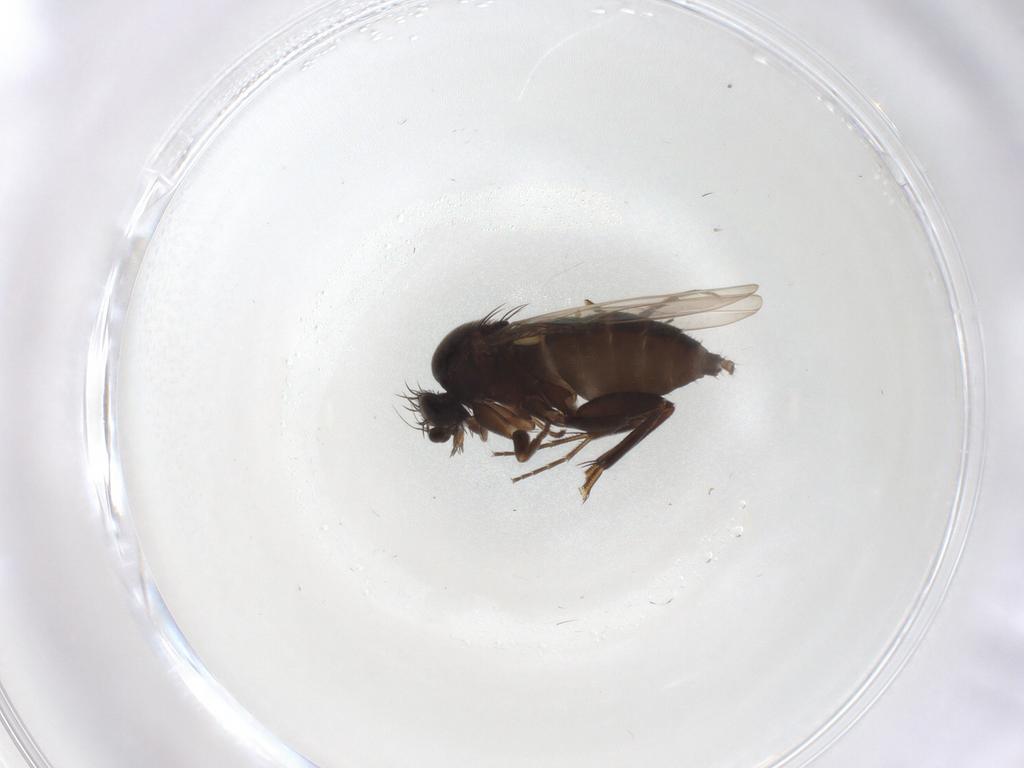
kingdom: Animalia
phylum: Arthropoda
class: Insecta
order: Diptera
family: Phoridae
